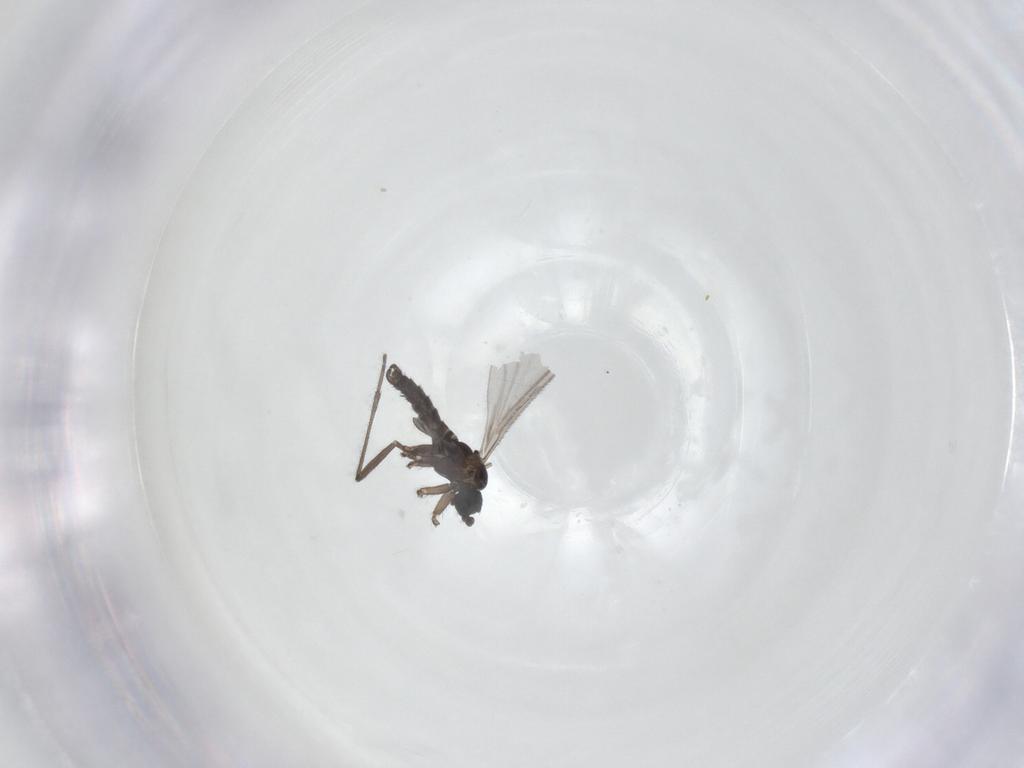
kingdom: Animalia
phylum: Arthropoda
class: Insecta
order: Diptera
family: Sciaridae
